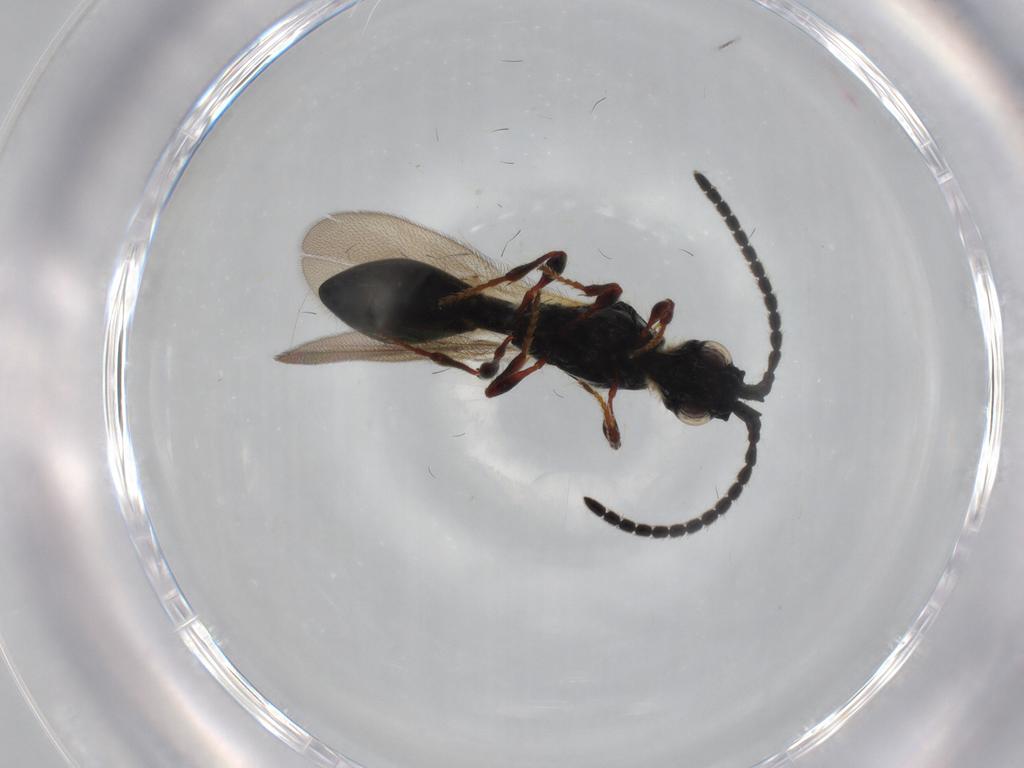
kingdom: Animalia
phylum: Arthropoda
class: Insecta
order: Hymenoptera
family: Diapriidae
